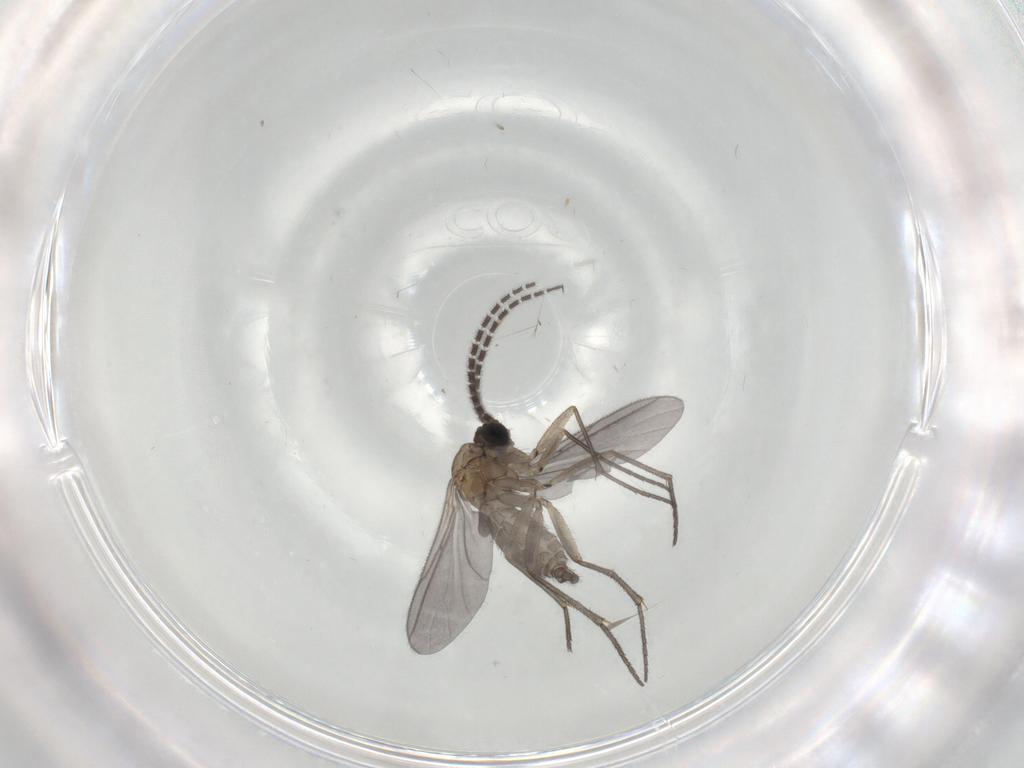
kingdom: Animalia
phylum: Arthropoda
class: Insecta
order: Diptera
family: Sciaridae
